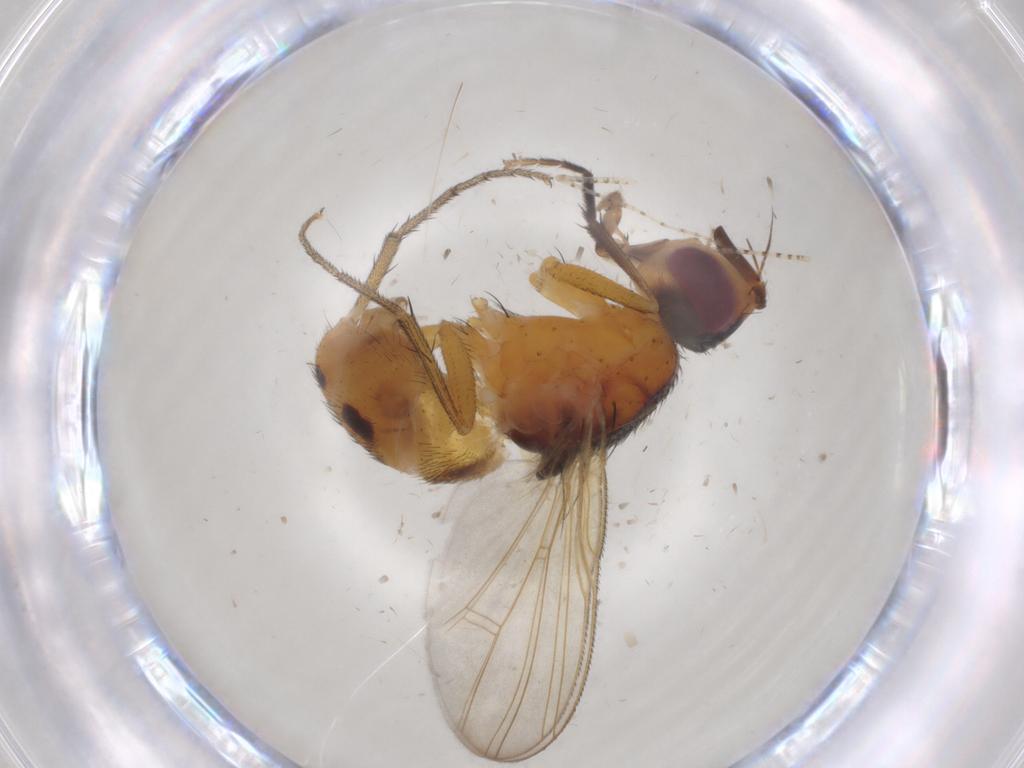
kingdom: Animalia
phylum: Arthropoda
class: Insecta
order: Diptera
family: Muscidae
